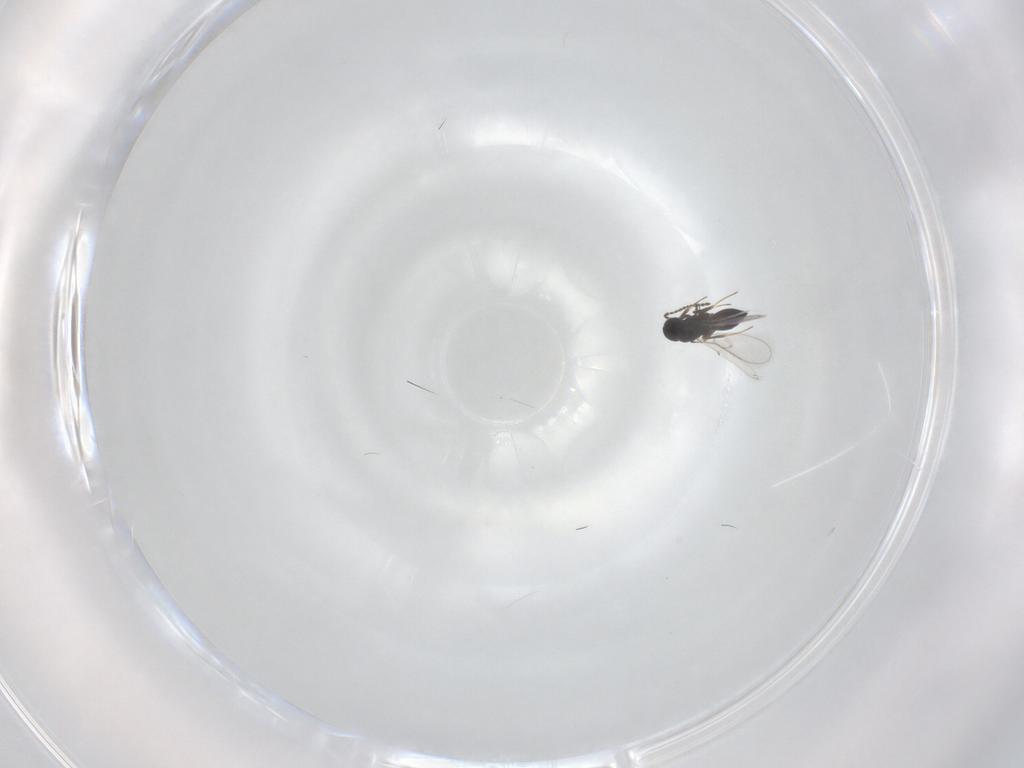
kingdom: Animalia
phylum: Arthropoda
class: Insecta
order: Hymenoptera
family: Scelionidae
